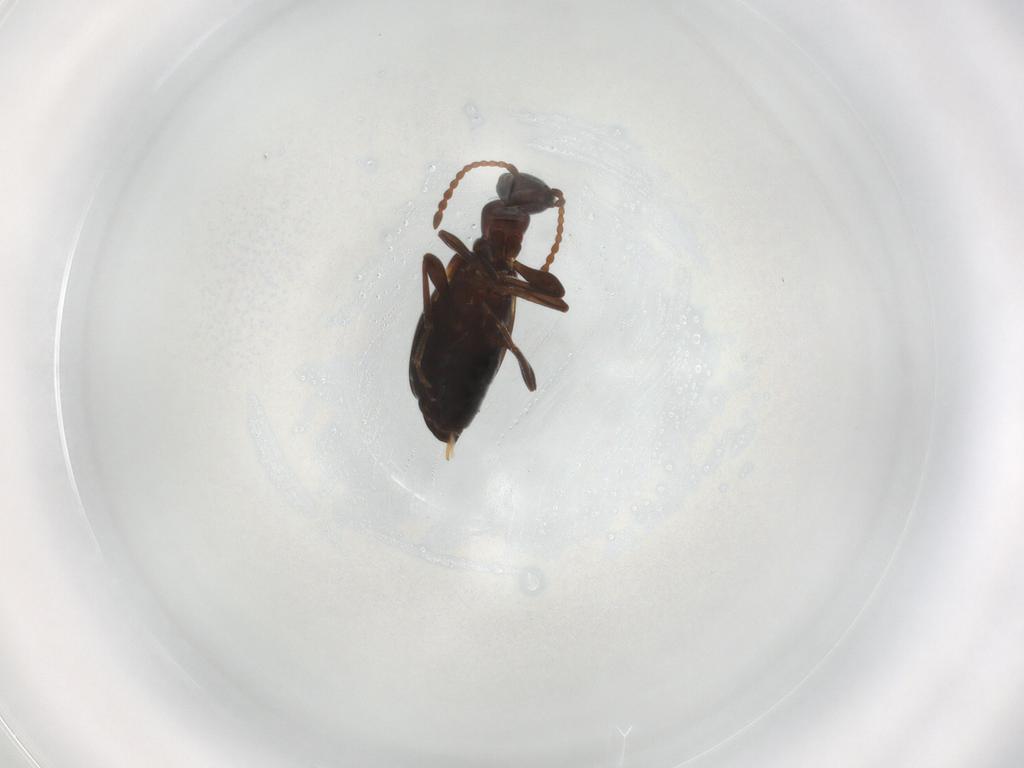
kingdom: Animalia
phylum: Arthropoda
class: Insecta
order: Coleoptera
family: Anthicidae
